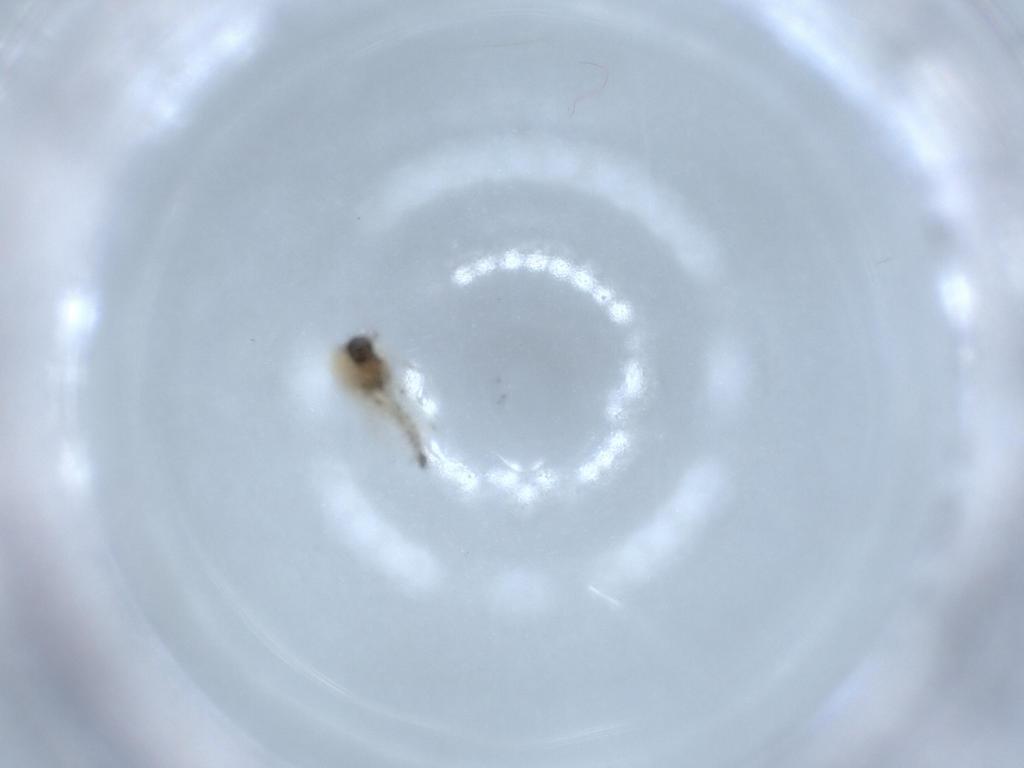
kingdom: Animalia
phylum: Arthropoda
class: Insecta
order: Diptera
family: Ceratopogonidae
